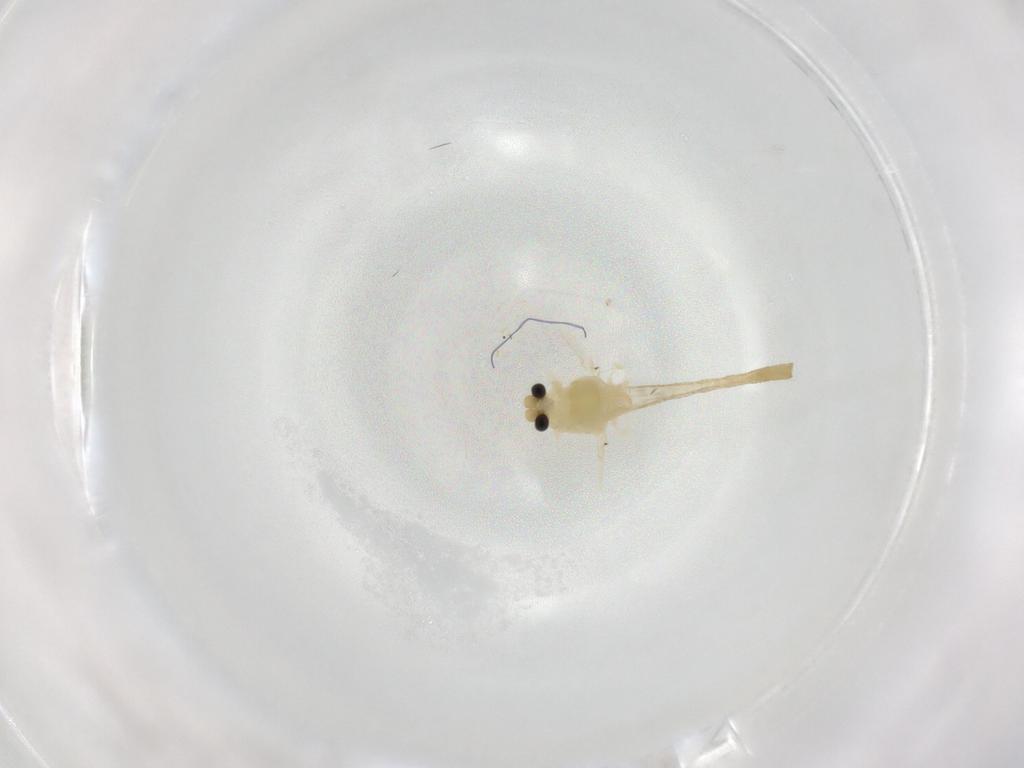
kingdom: Animalia
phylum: Arthropoda
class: Insecta
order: Diptera
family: Chironomidae
